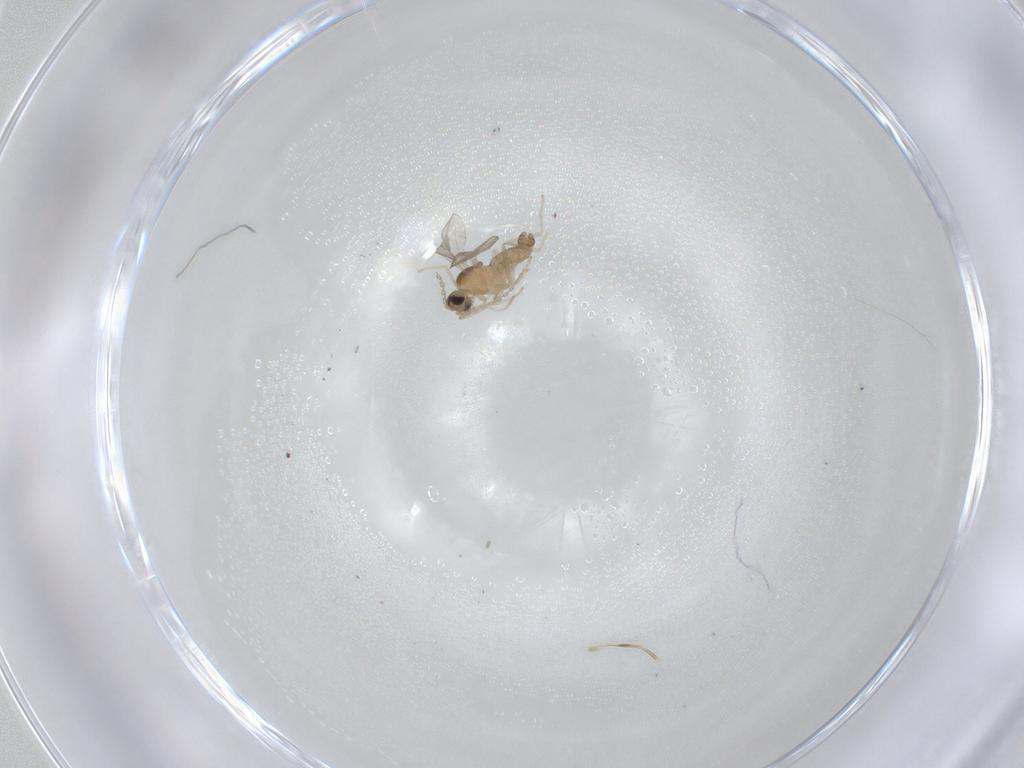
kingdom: Animalia
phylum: Arthropoda
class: Insecta
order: Diptera
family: Cecidomyiidae
